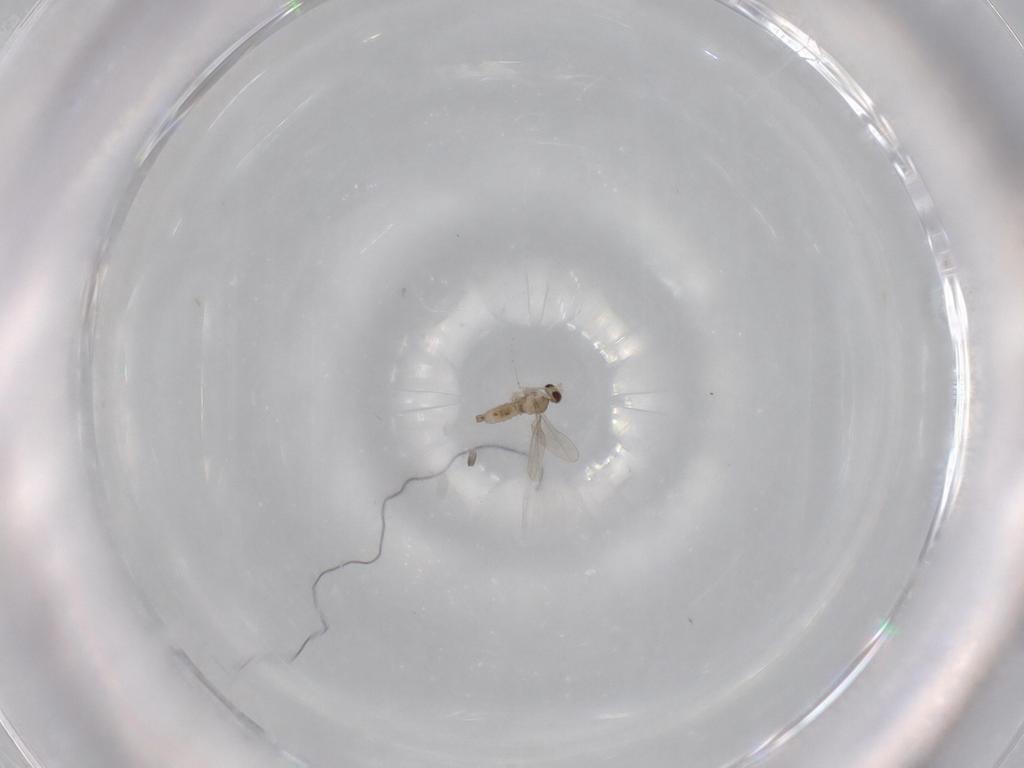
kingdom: Animalia
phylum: Arthropoda
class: Insecta
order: Diptera
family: Cecidomyiidae
